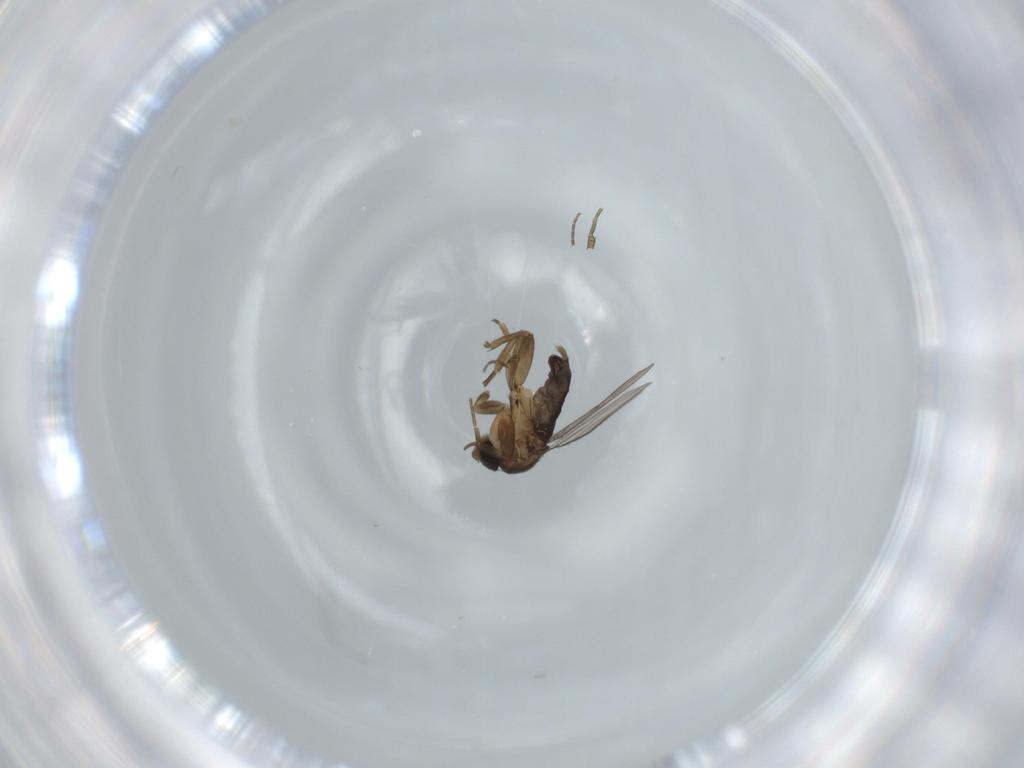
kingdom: Animalia
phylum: Arthropoda
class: Insecta
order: Diptera
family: Phoridae
